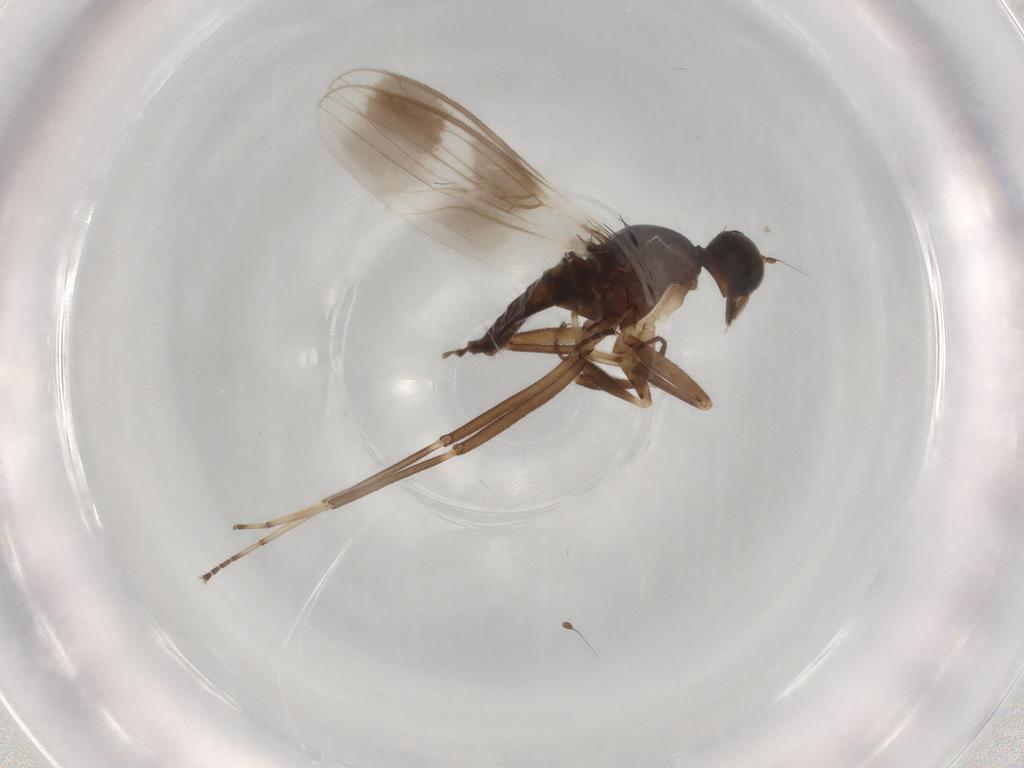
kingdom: Animalia
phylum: Arthropoda
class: Insecta
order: Diptera
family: Hybotidae
